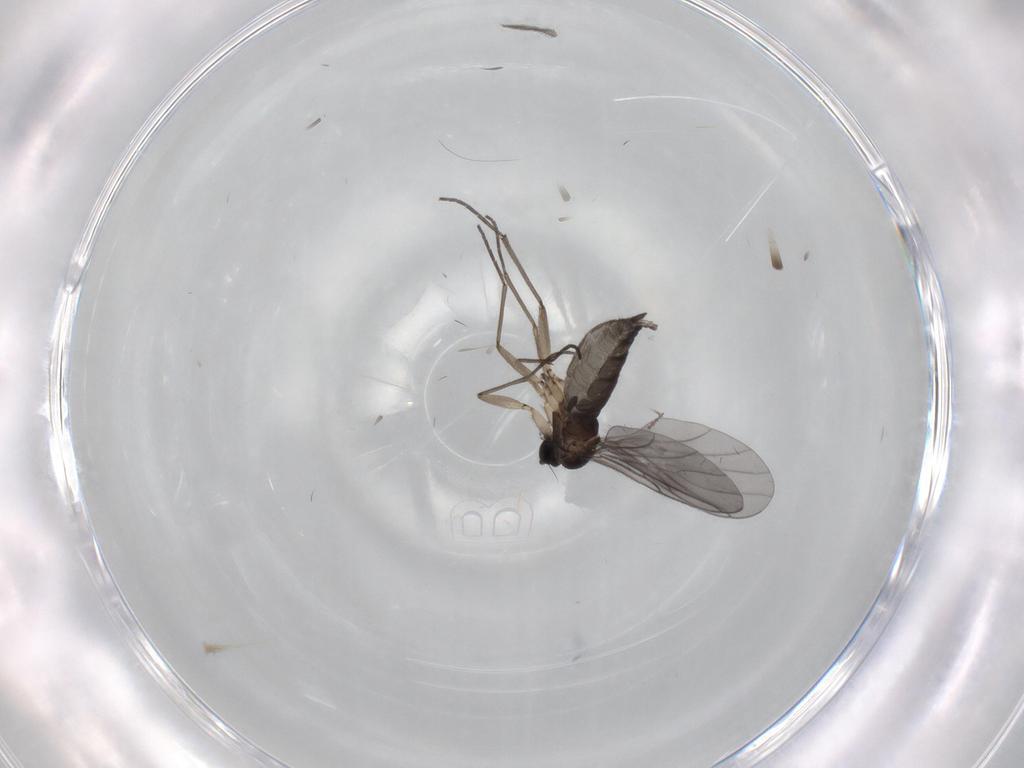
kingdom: Animalia
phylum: Arthropoda
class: Insecta
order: Diptera
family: Sciaridae
